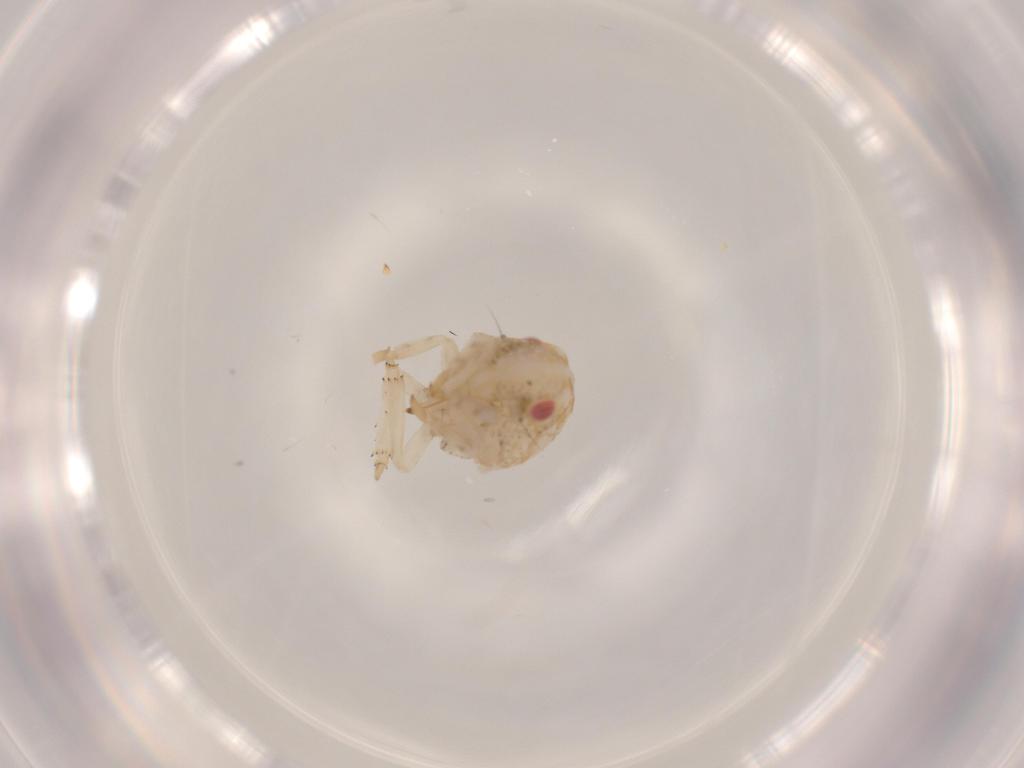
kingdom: Animalia
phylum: Arthropoda
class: Insecta
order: Hemiptera
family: Acanaloniidae
